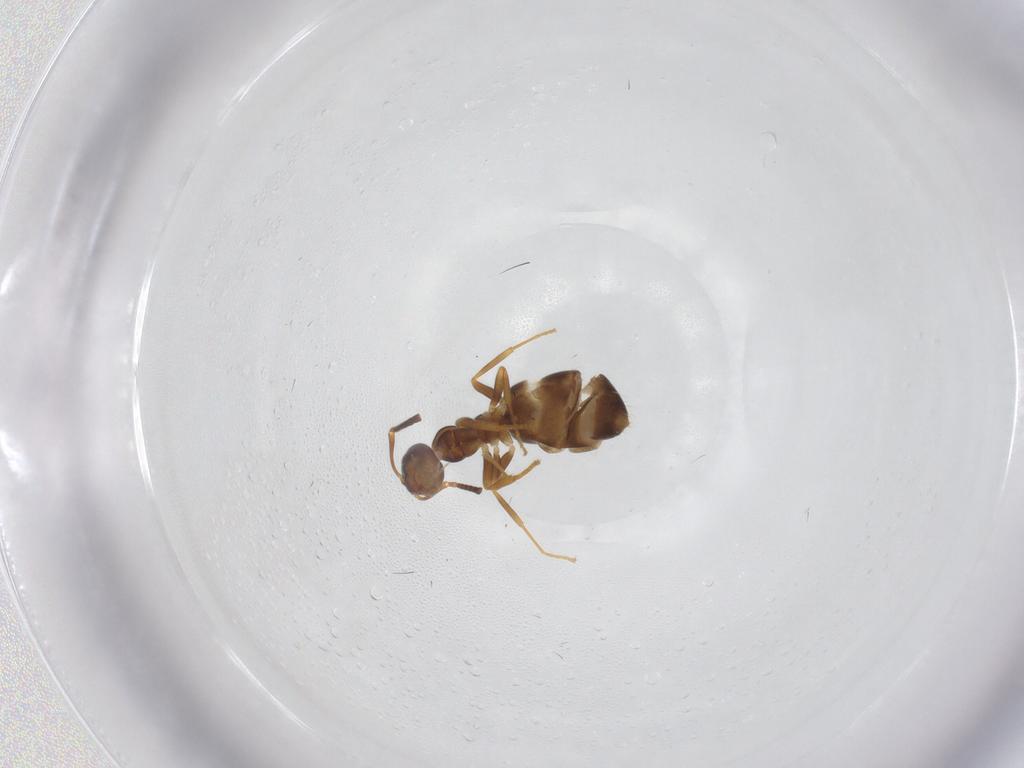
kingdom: Animalia
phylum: Arthropoda
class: Insecta
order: Hymenoptera
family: Formicidae
